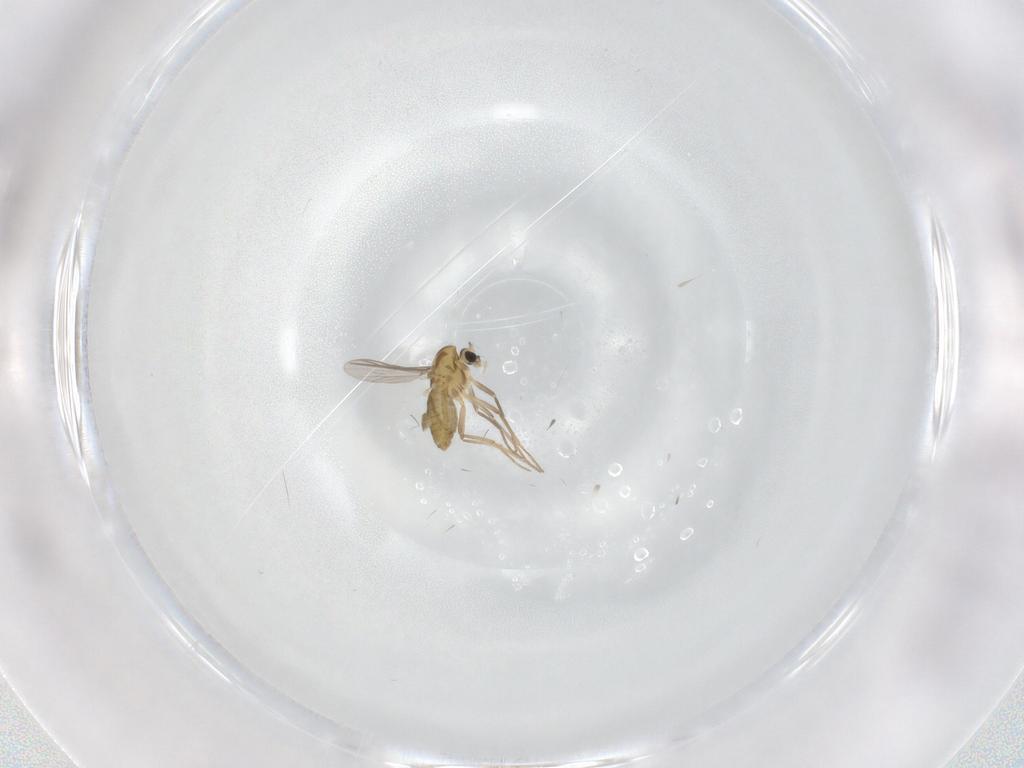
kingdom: Animalia
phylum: Arthropoda
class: Insecta
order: Diptera
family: Chironomidae
